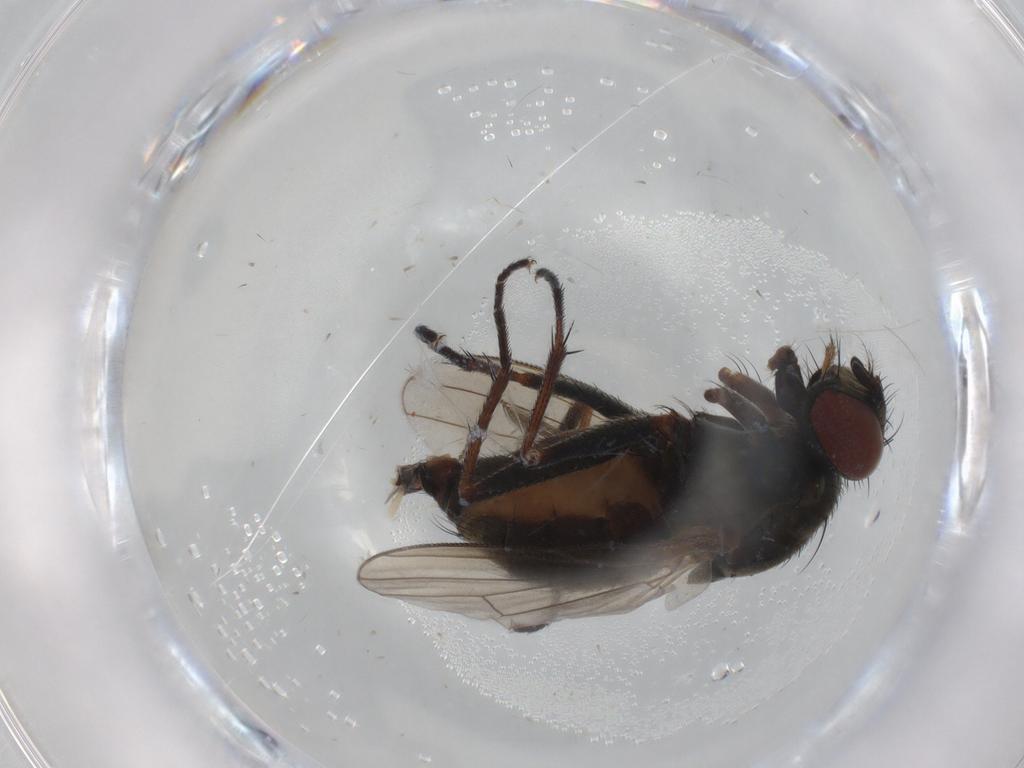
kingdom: Animalia
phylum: Arthropoda
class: Insecta
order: Diptera
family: Muscidae
